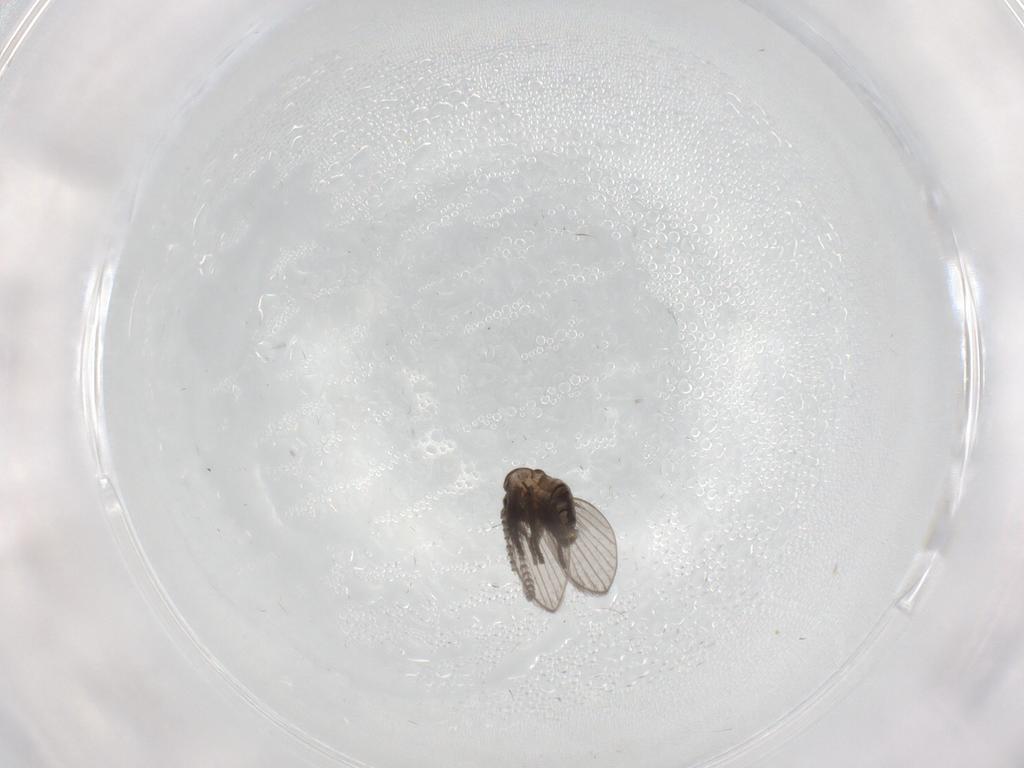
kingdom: Animalia
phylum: Arthropoda
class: Insecta
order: Diptera
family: Psychodidae
